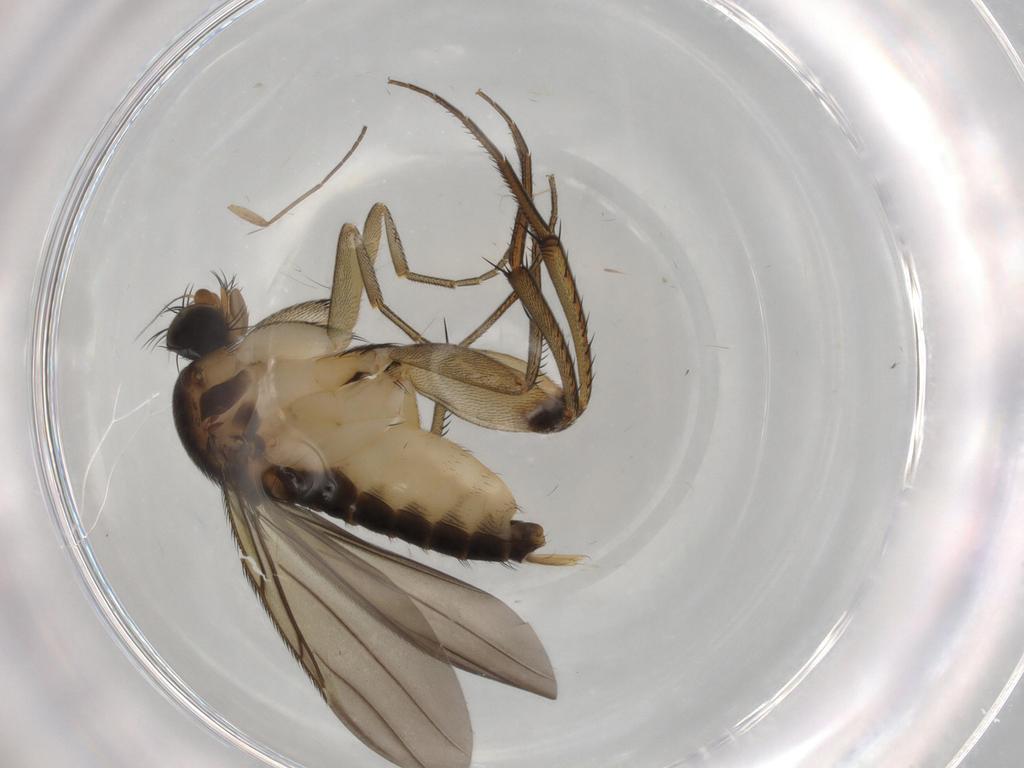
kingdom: Animalia
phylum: Arthropoda
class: Insecta
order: Diptera
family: Phoridae
